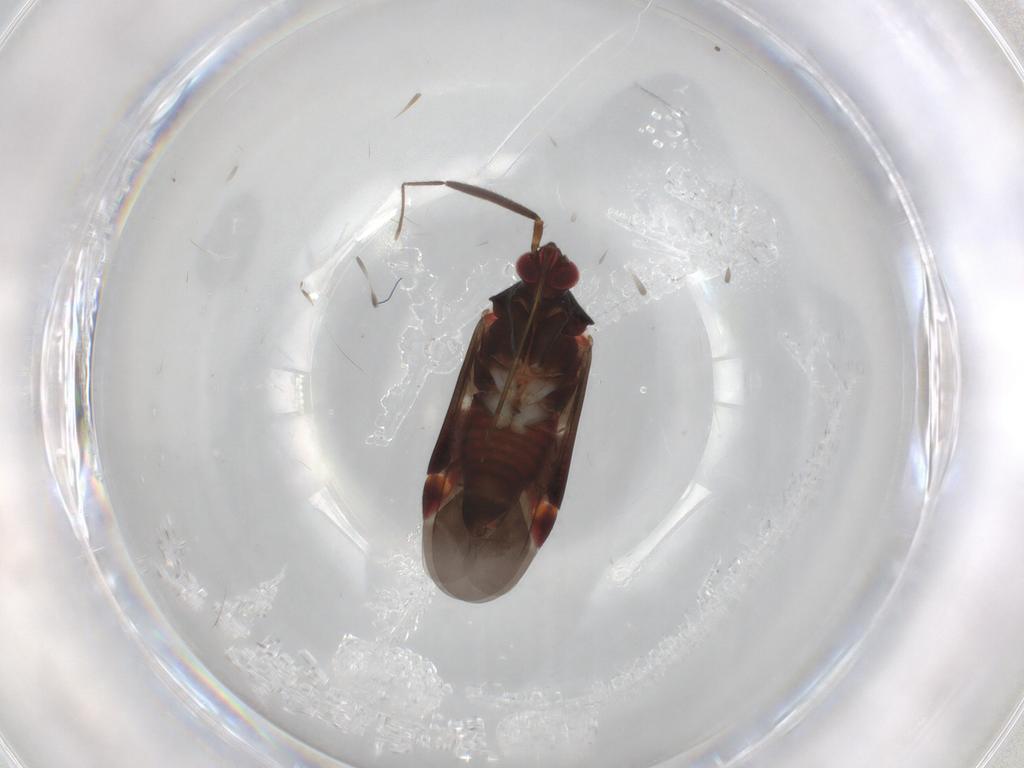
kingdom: Animalia
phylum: Arthropoda
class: Insecta
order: Hemiptera
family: Miridae
